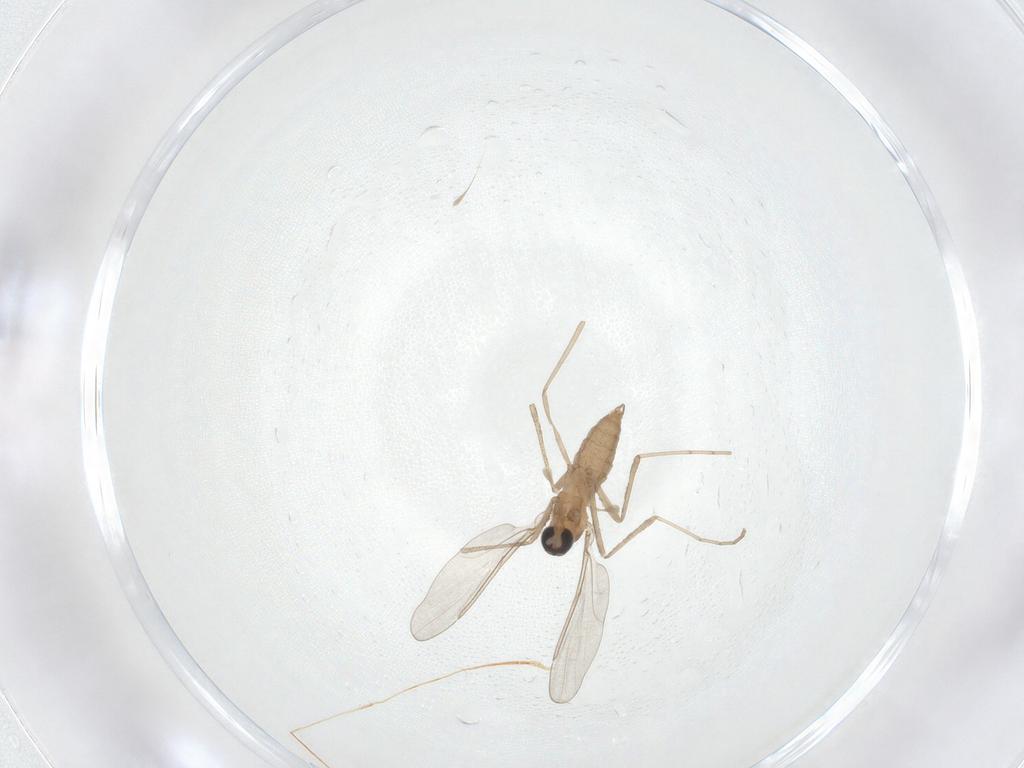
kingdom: Animalia
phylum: Arthropoda
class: Insecta
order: Diptera
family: Cecidomyiidae
